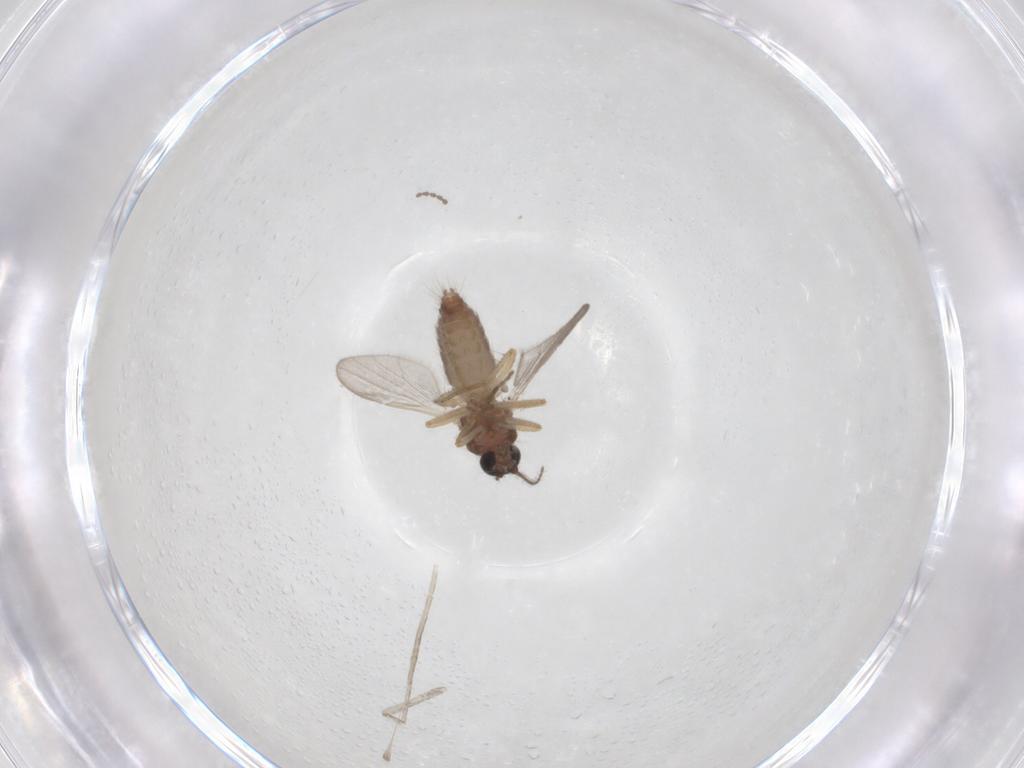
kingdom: Animalia
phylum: Arthropoda
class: Insecta
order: Diptera
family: Ceratopogonidae
